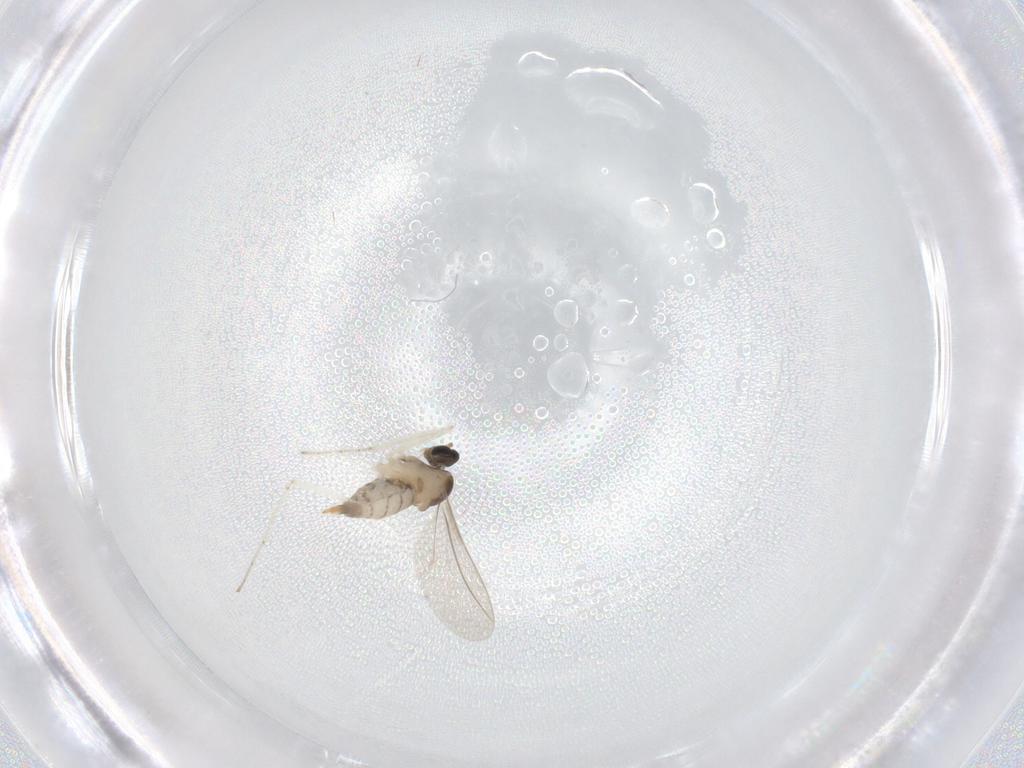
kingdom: Animalia
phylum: Arthropoda
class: Insecta
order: Diptera
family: Cecidomyiidae
